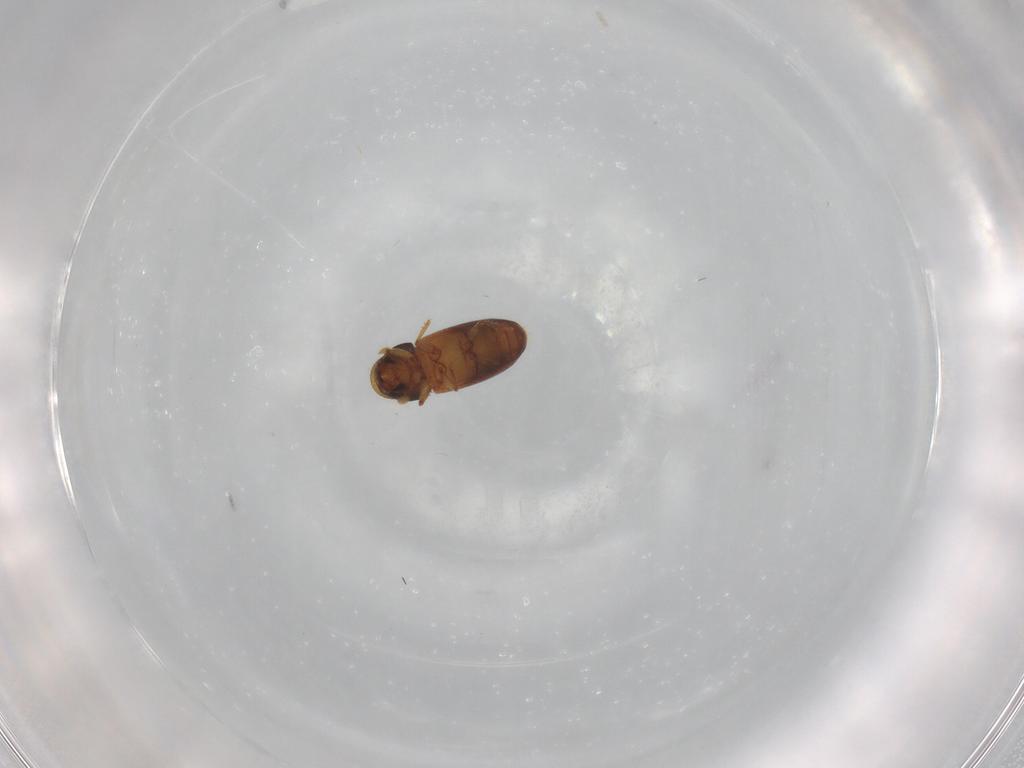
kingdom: Animalia
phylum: Arthropoda
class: Insecta
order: Coleoptera
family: Curculionidae
